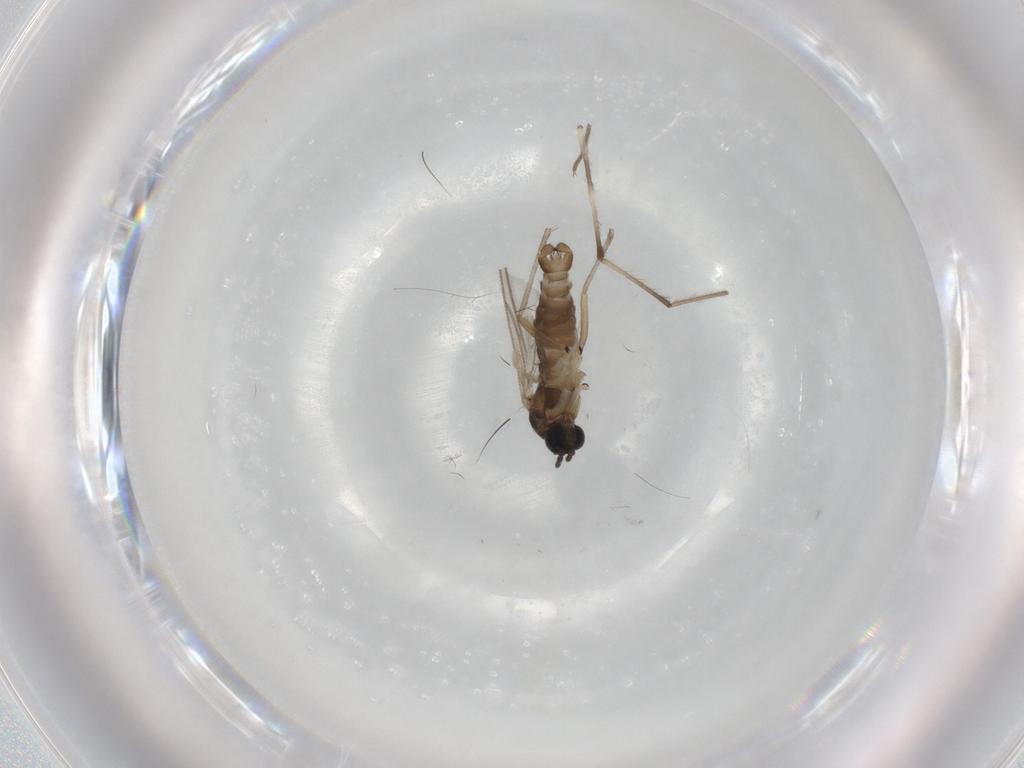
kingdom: Animalia
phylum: Arthropoda
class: Insecta
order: Diptera
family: Sciaridae
